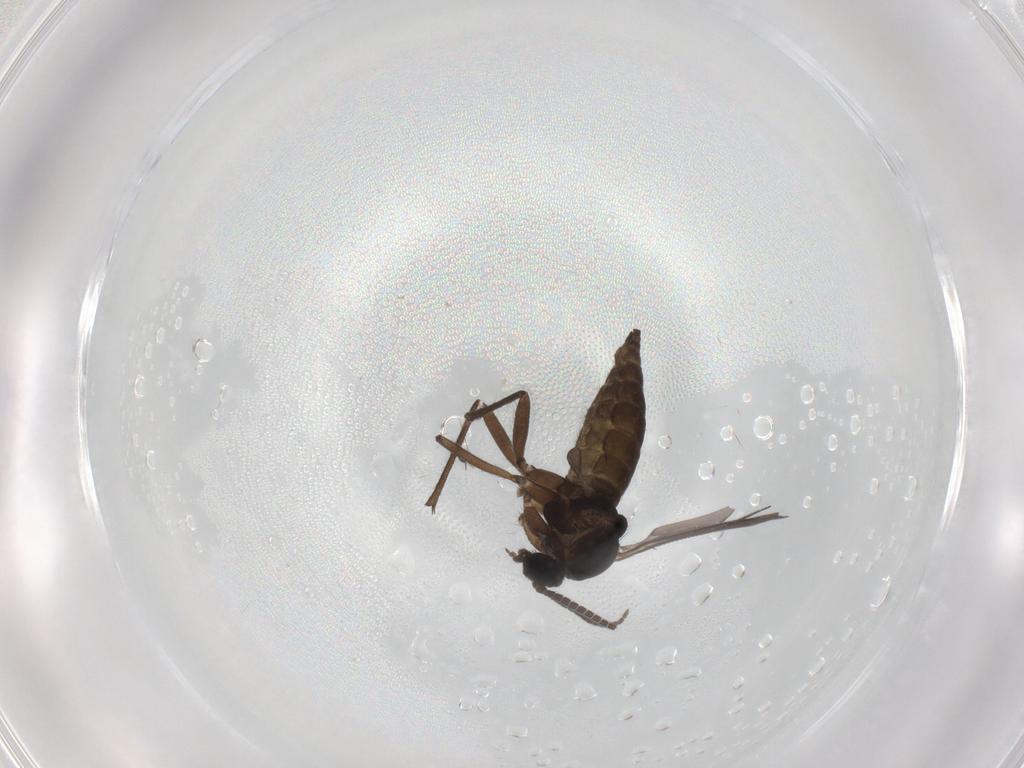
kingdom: Animalia
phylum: Arthropoda
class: Insecta
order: Diptera
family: Sciaridae
